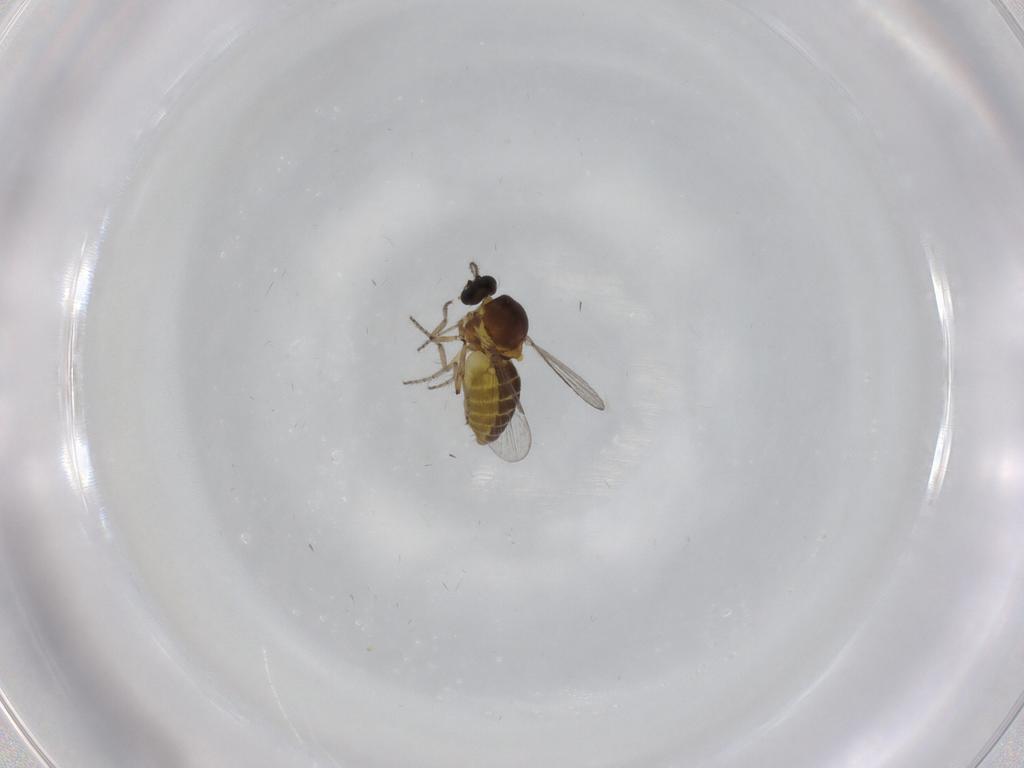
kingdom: Animalia
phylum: Arthropoda
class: Insecta
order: Diptera
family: Ceratopogonidae
